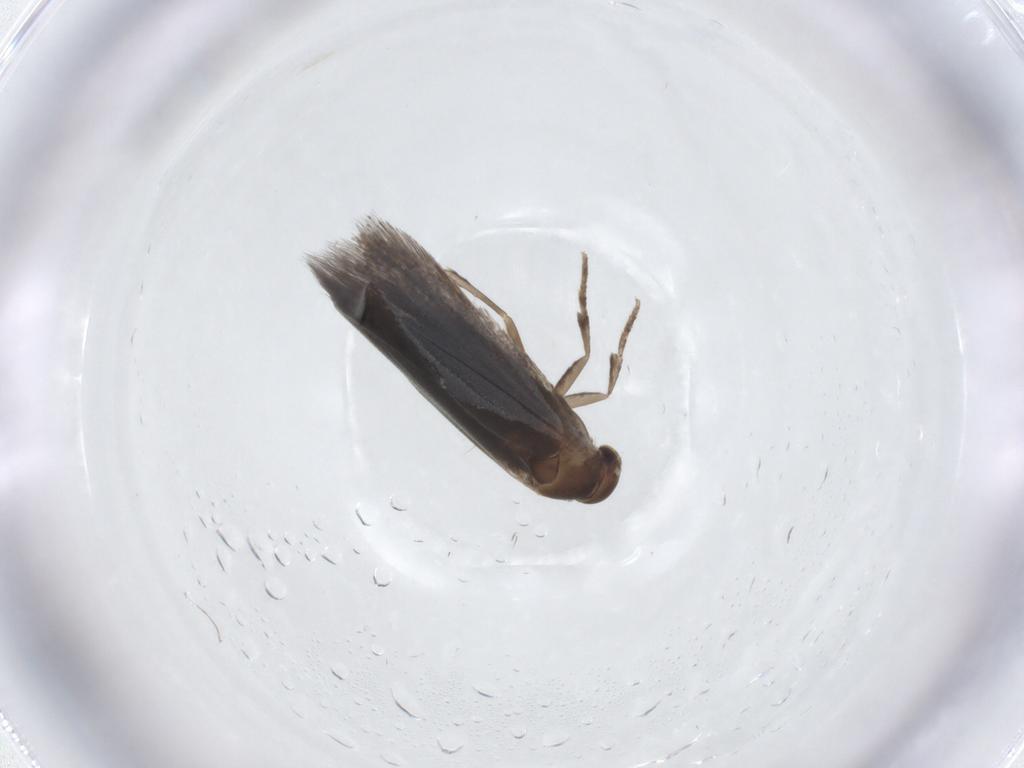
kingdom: Animalia
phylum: Arthropoda
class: Insecta
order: Lepidoptera
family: Elachistidae
